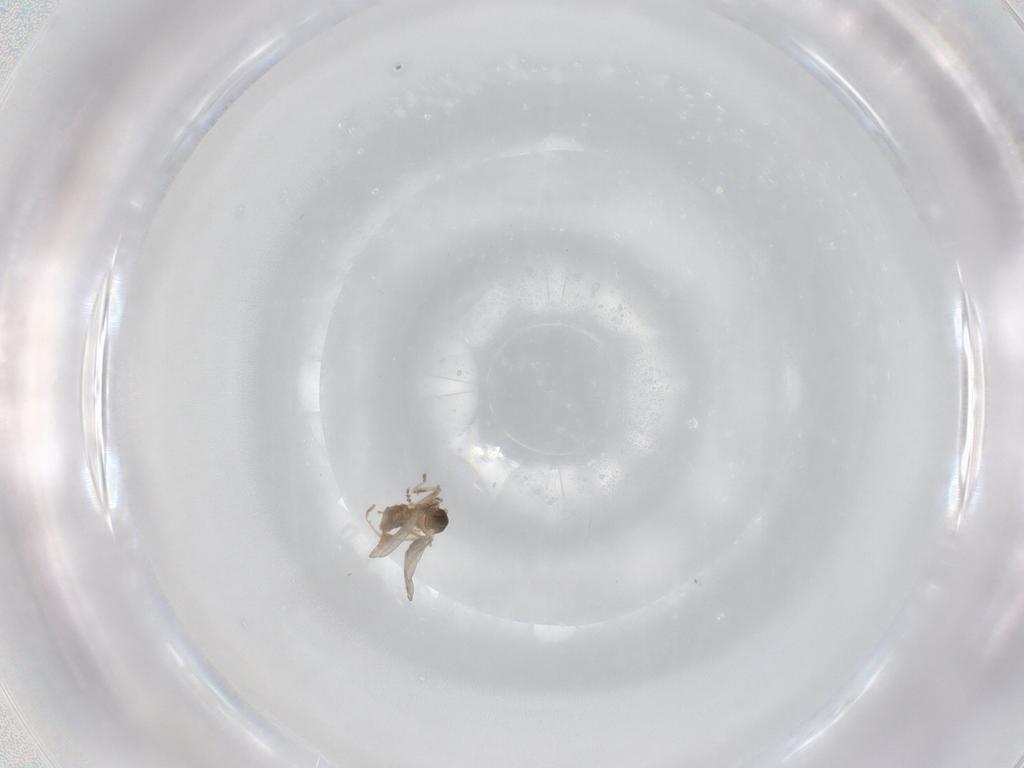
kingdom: Animalia
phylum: Arthropoda
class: Insecta
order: Diptera
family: Cecidomyiidae
